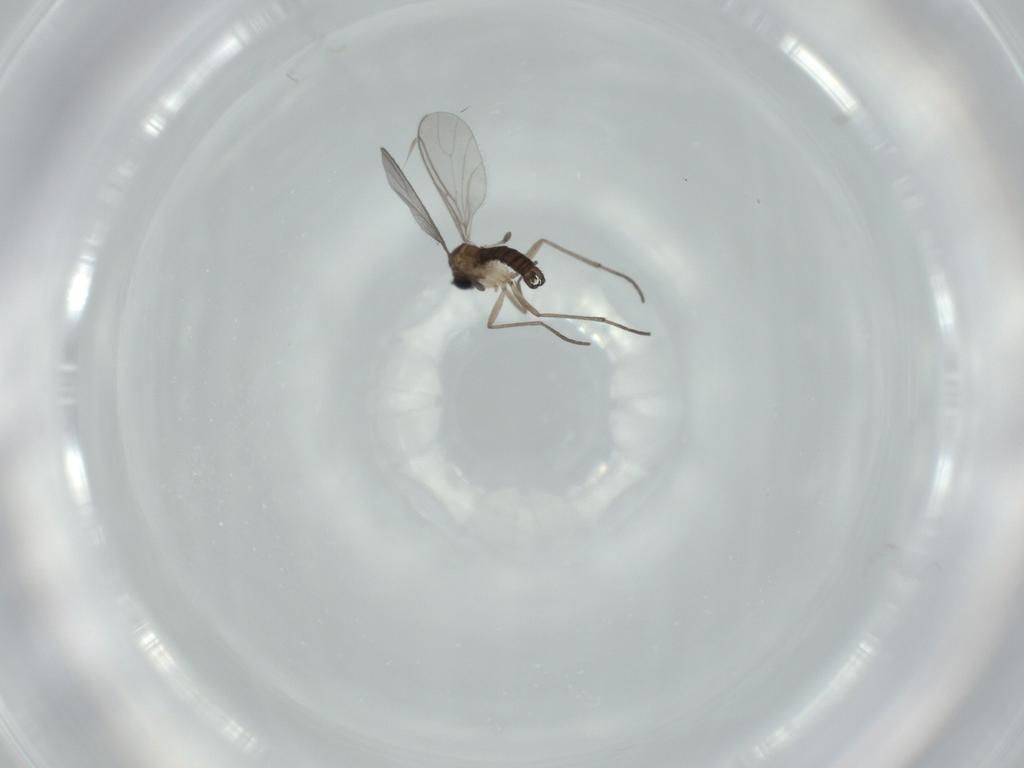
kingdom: Animalia
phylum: Arthropoda
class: Insecta
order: Diptera
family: Sciaridae
